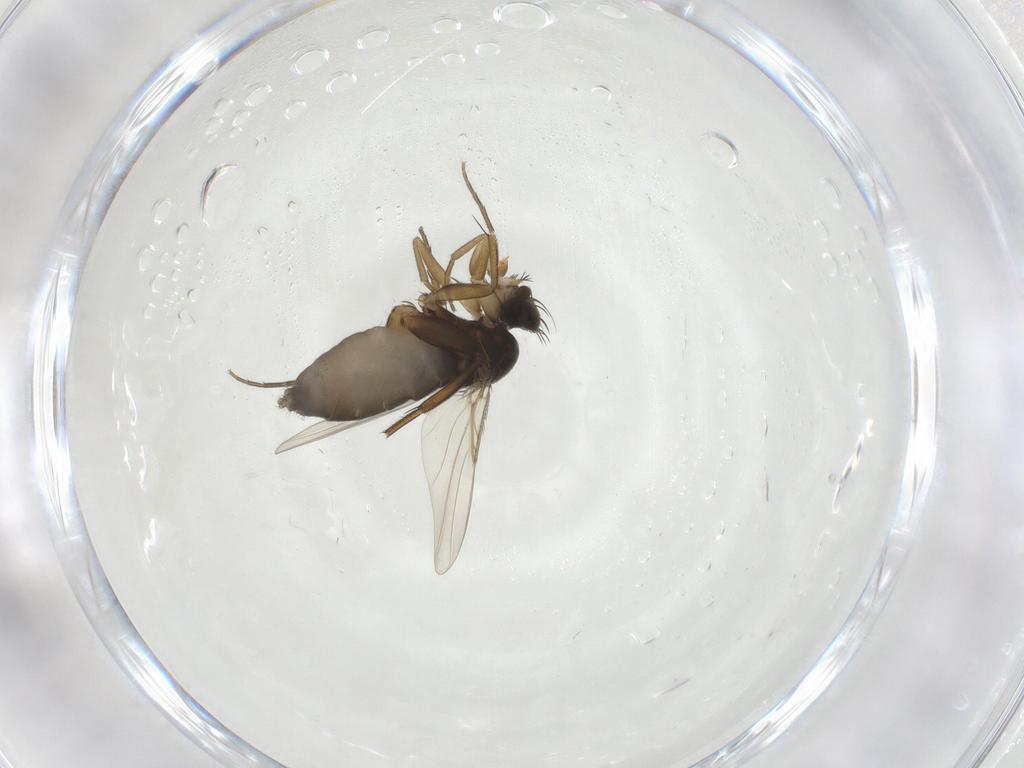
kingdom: Animalia
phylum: Arthropoda
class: Insecta
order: Diptera
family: Phoridae
